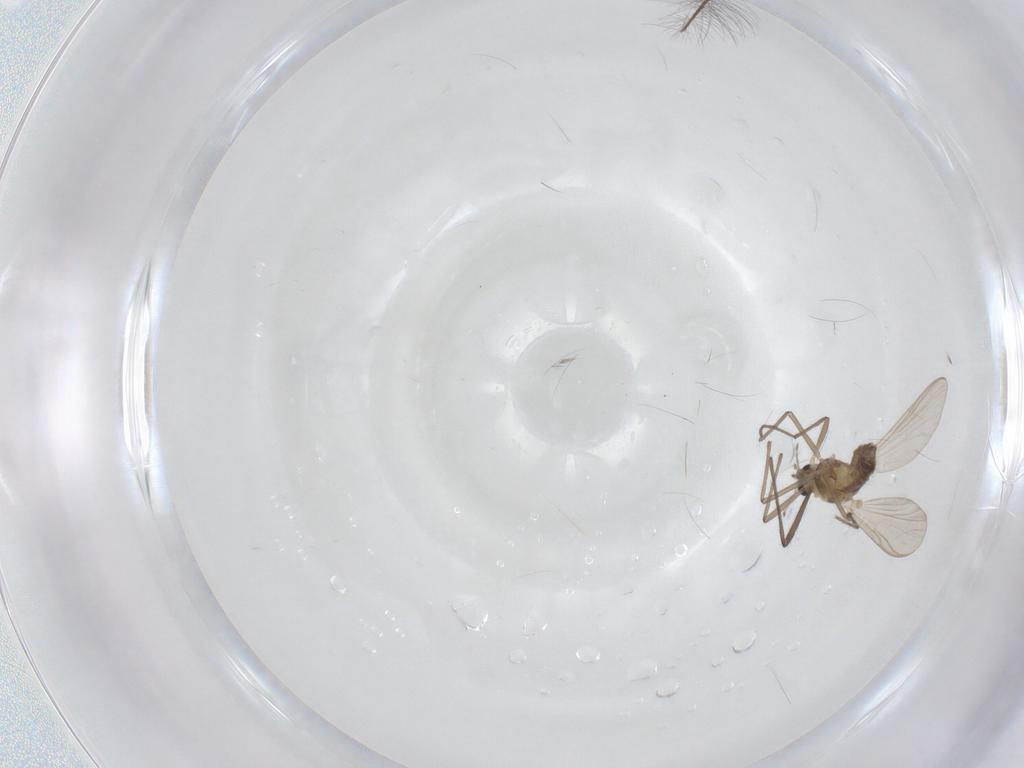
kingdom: Animalia
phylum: Arthropoda
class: Insecta
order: Diptera
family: Chironomidae
